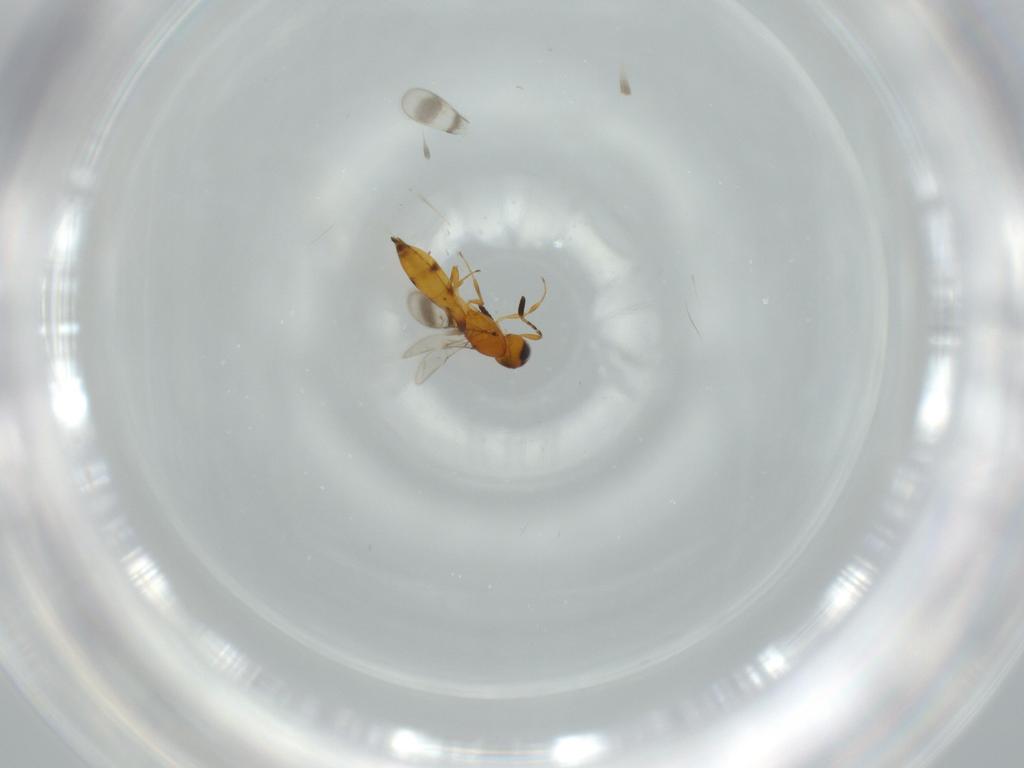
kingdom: Animalia
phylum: Arthropoda
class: Insecta
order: Hymenoptera
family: Scelionidae
